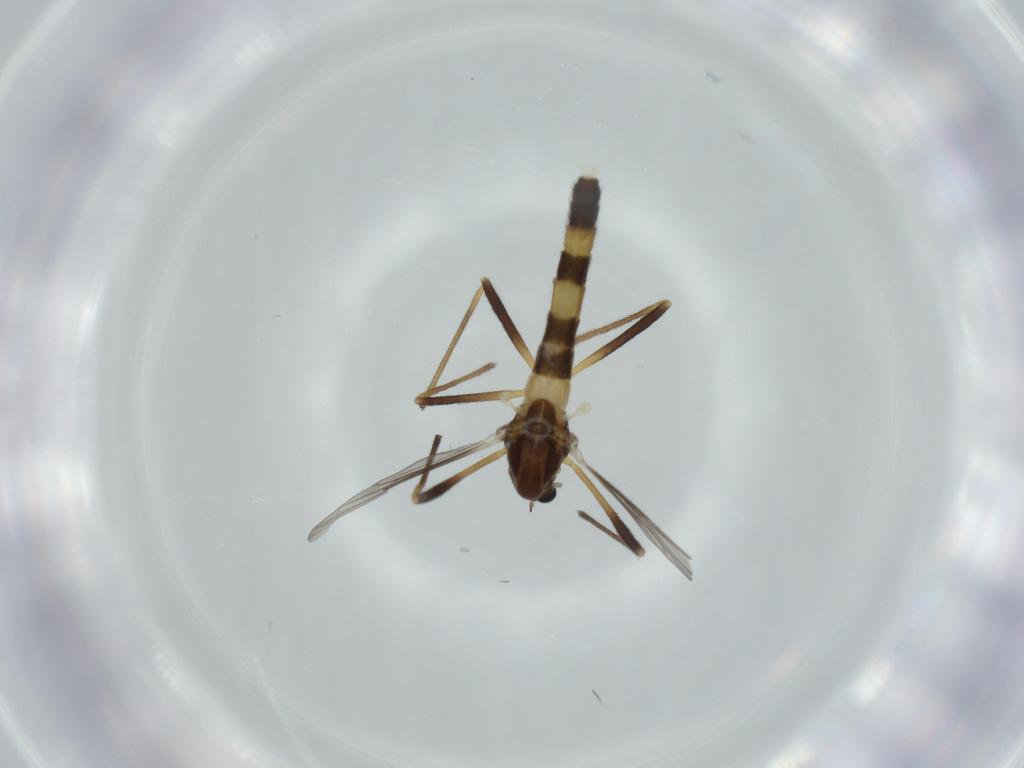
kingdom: Animalia
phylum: Arthropoda
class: Insecta
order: Diptera
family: Chironomidae
